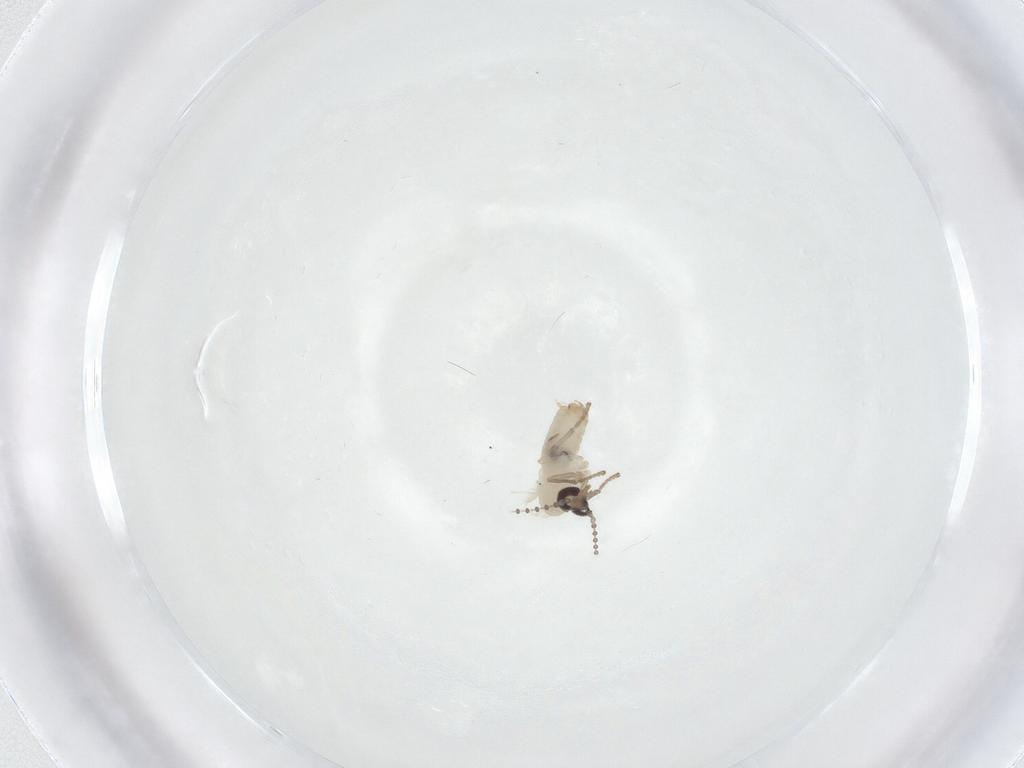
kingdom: Animalia
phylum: Arthropoda
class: Insecta
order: Diptera
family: Psychodidae
